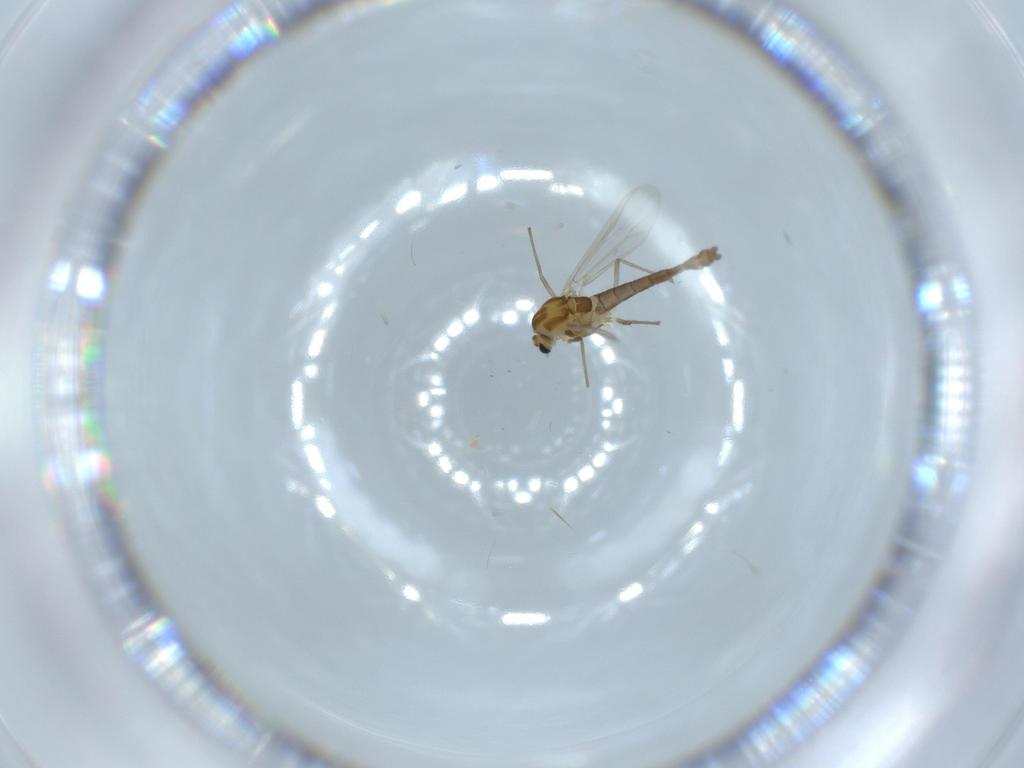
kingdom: Animalia
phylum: Arthropoda
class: Insecta
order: Diptera
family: Chironomidae
